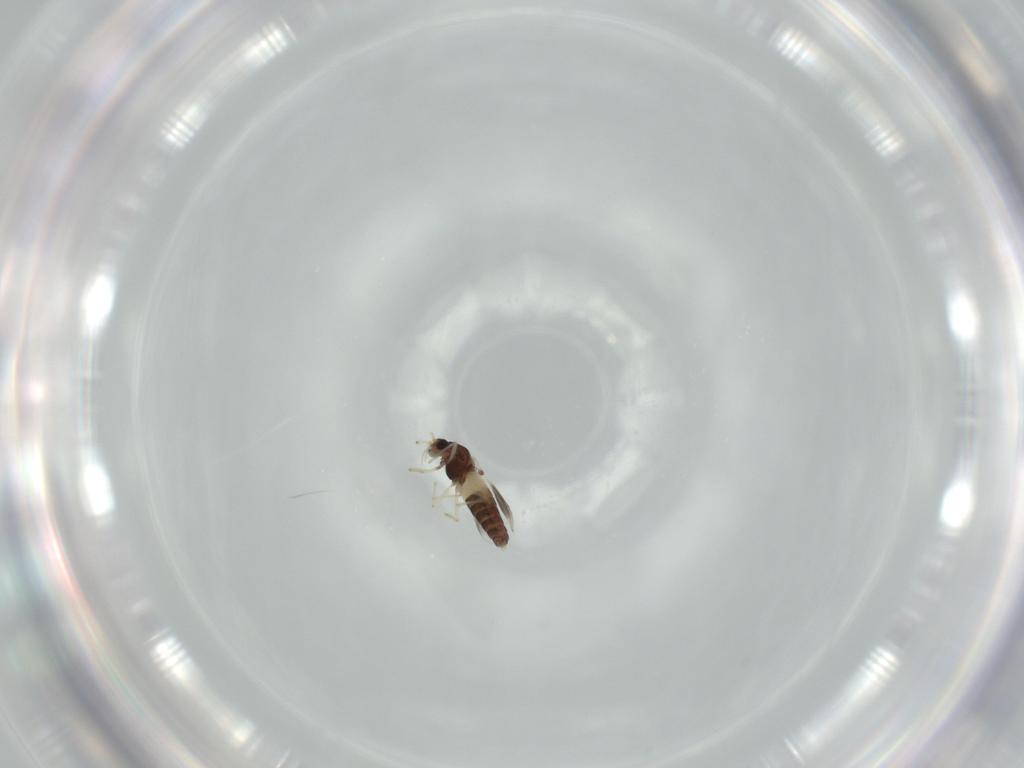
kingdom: Animalia
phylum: Arthropoda
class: Insecta
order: Diptera
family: Chironomidae
